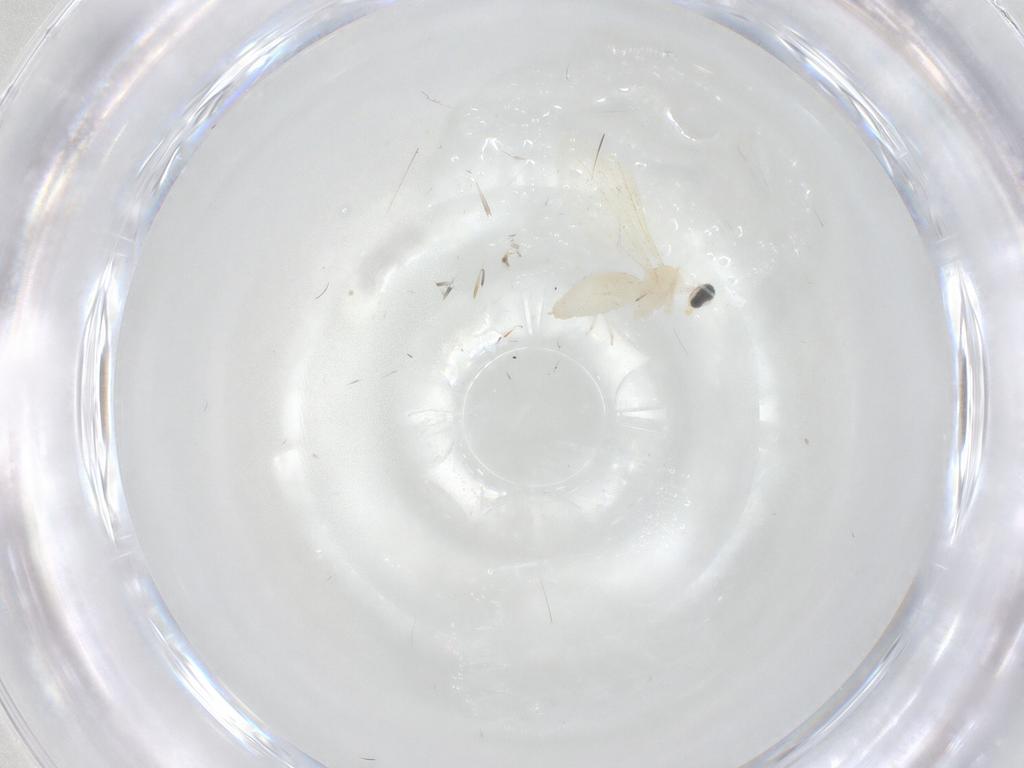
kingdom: Animalia
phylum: Arthropoda
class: Insecta
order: Diptera
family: Cecidomyiidae
